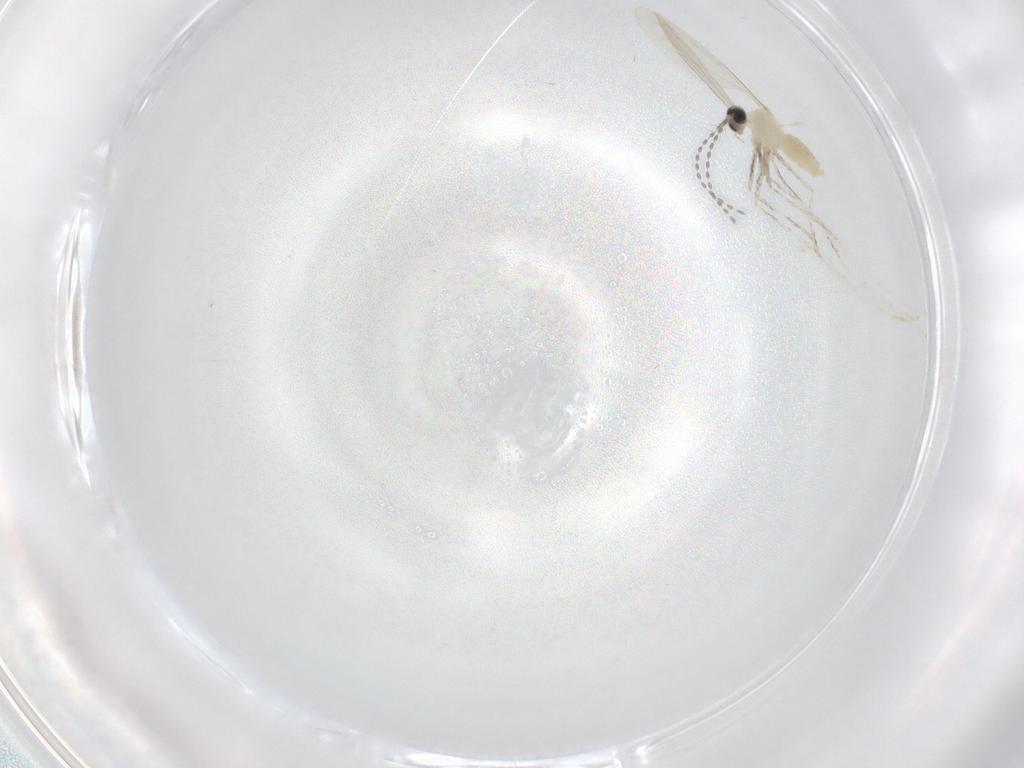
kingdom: Animalia
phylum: Arthropoda
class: Insecta
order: Diptera
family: Cecidomyiidae
